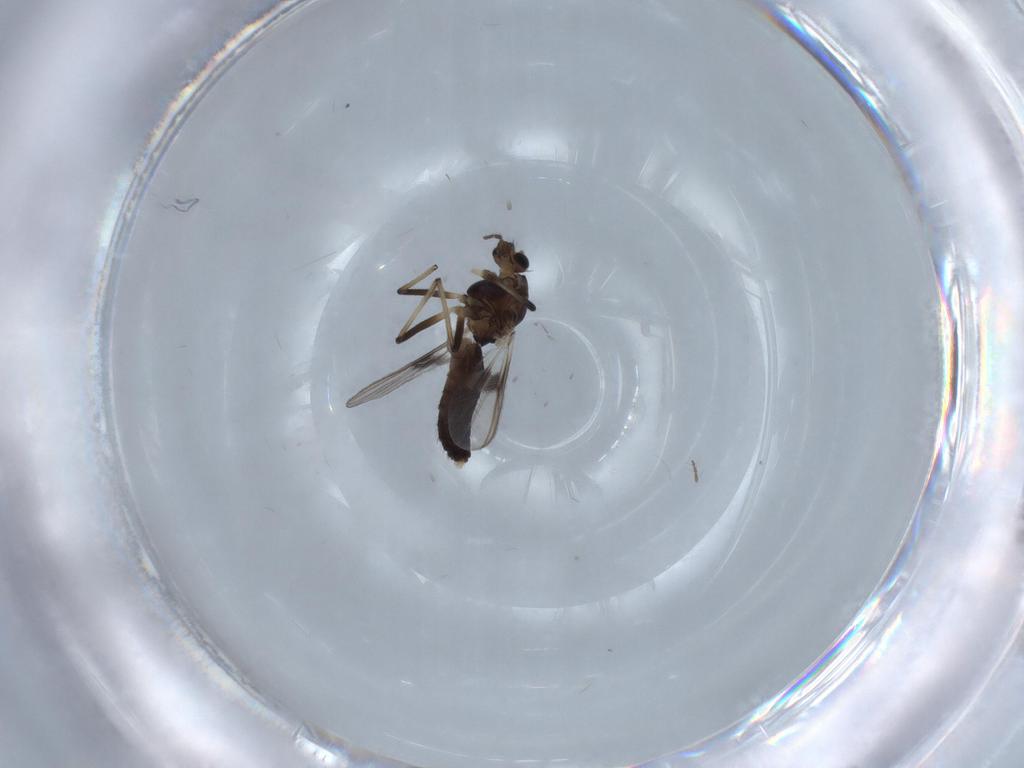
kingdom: Animalia
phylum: Arthropoda
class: Insecta
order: Diptera
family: Chironomidae
